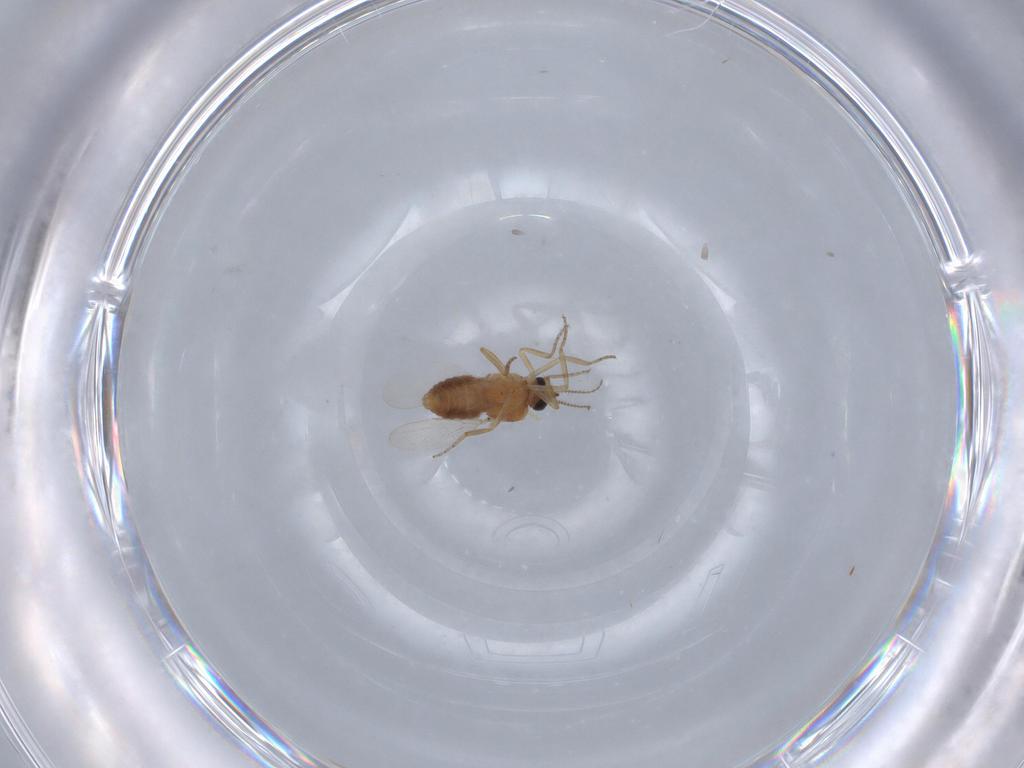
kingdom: Animalia
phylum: Arthropoda
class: Insecta
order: Diptera
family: Ceratopogonidae
